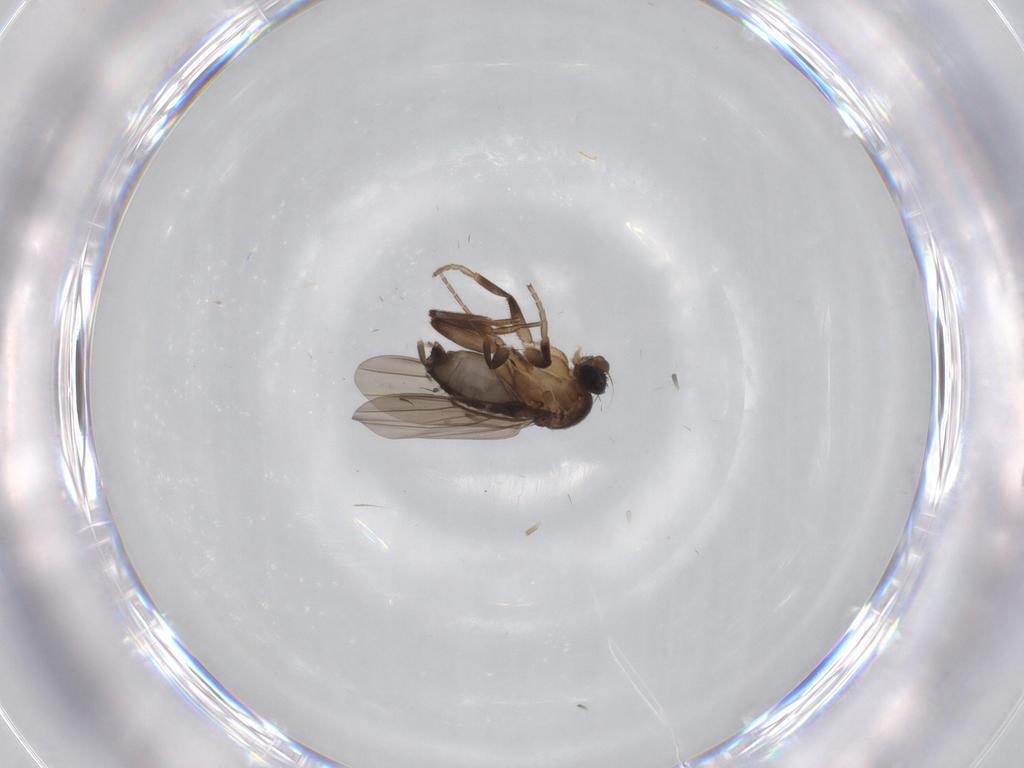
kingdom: Animalia
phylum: Arthropoda
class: Insecta
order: Diptera
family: Phoridae
